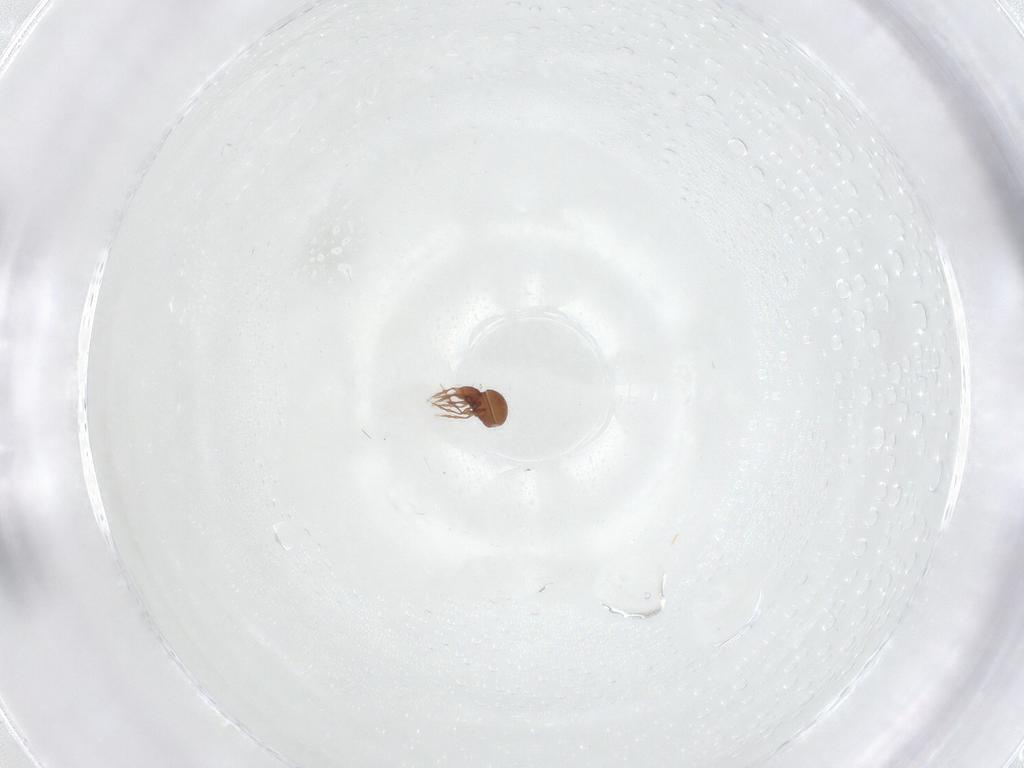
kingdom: Animalia
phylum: Arthropoda
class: Arachnida
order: Sarcoptiformes
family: Oppiidae
